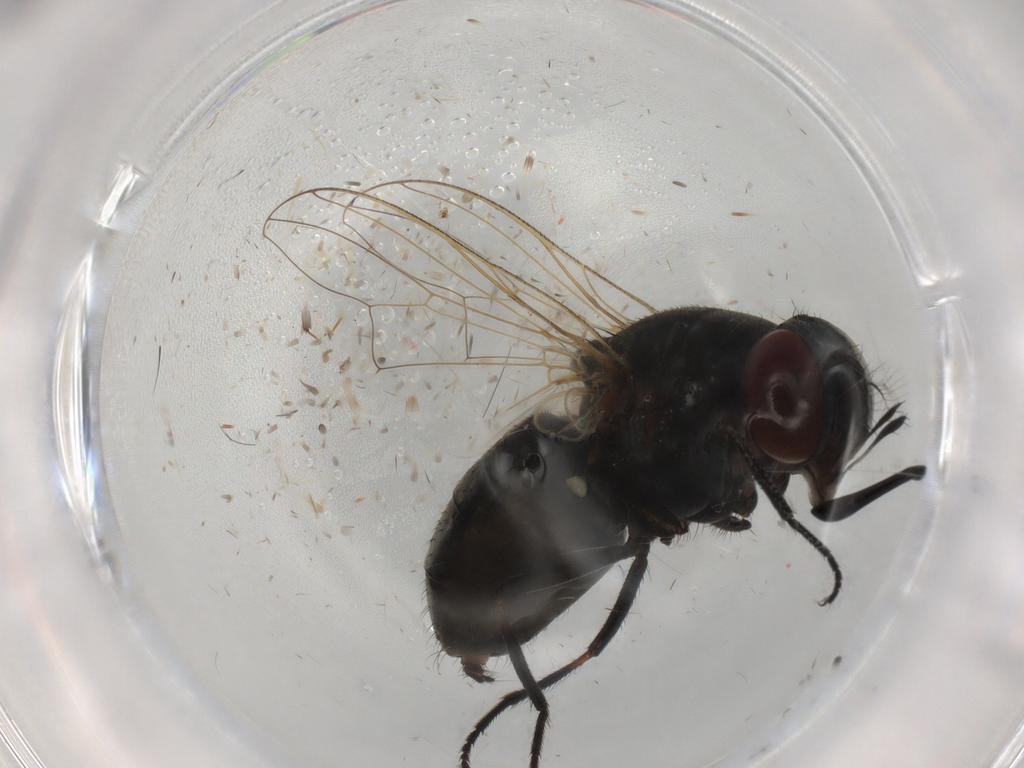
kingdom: Animalia
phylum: Arthropoda
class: Insecta
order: Diptera
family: Muscidae
